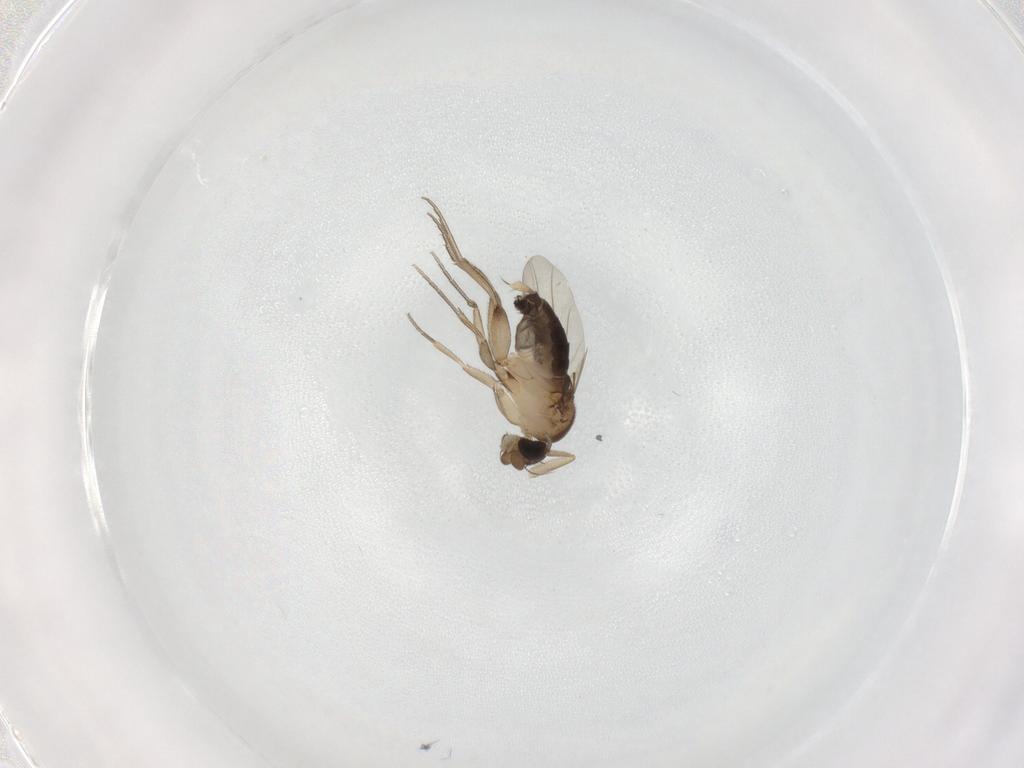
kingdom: Animalia
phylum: Arthropoda
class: Insecta
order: Diptera
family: Phoridae
